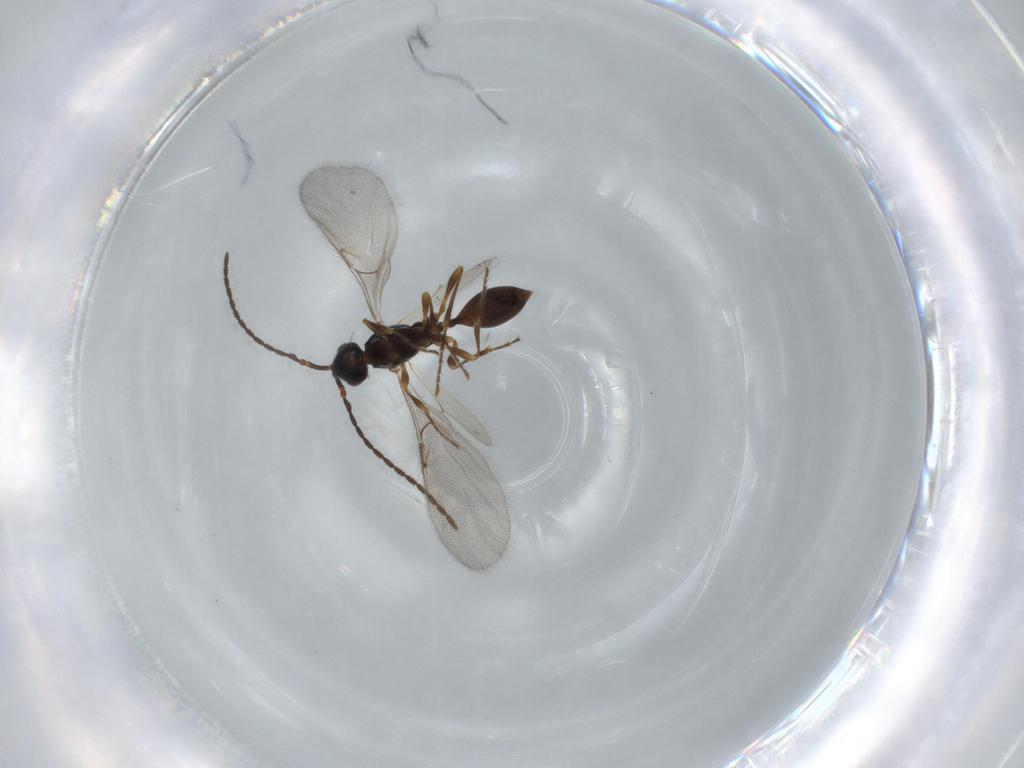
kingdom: Animalia
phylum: Arthropoda
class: Insecta
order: Hymenoptera
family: Diapriidae
